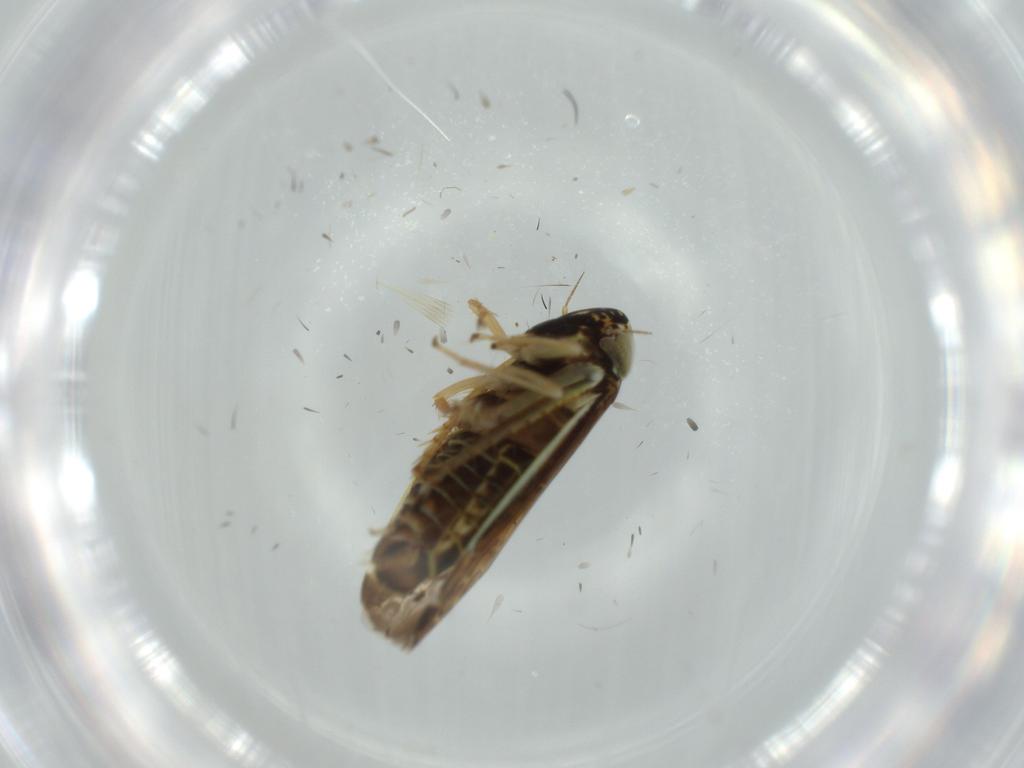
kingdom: Animalia
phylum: Arthropoda
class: Insecta
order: Hemiptera
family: Cicadellidae
